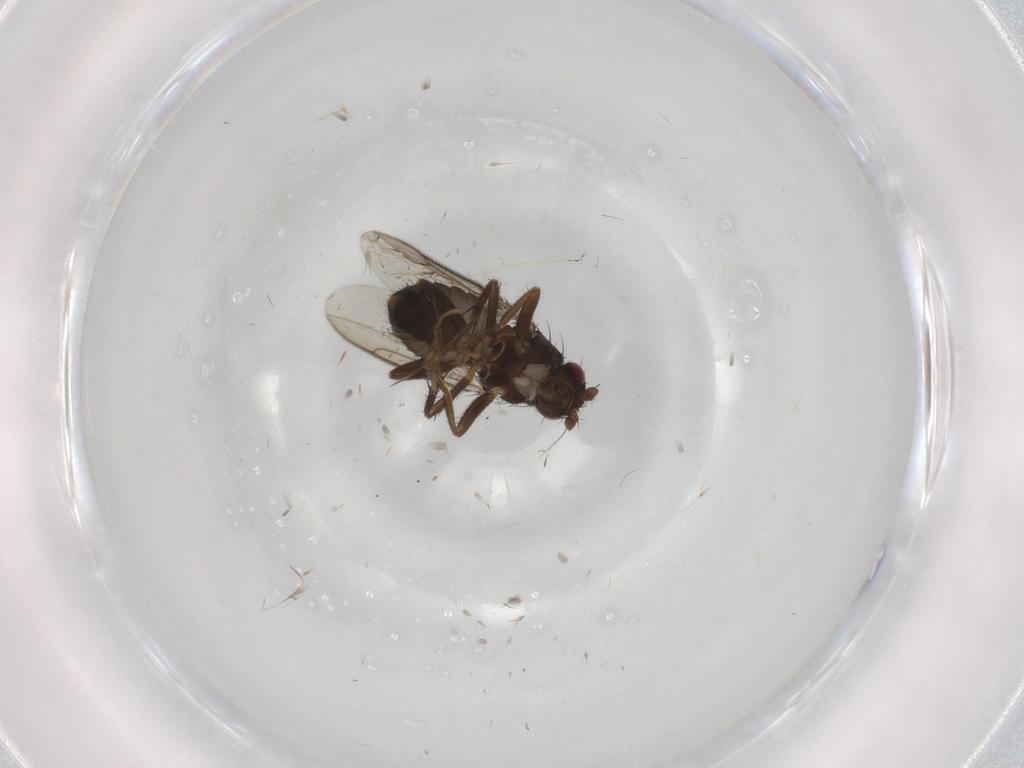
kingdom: Animalia
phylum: Arthropoda
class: Insecta
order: Diptera
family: Sphaeroceridae
